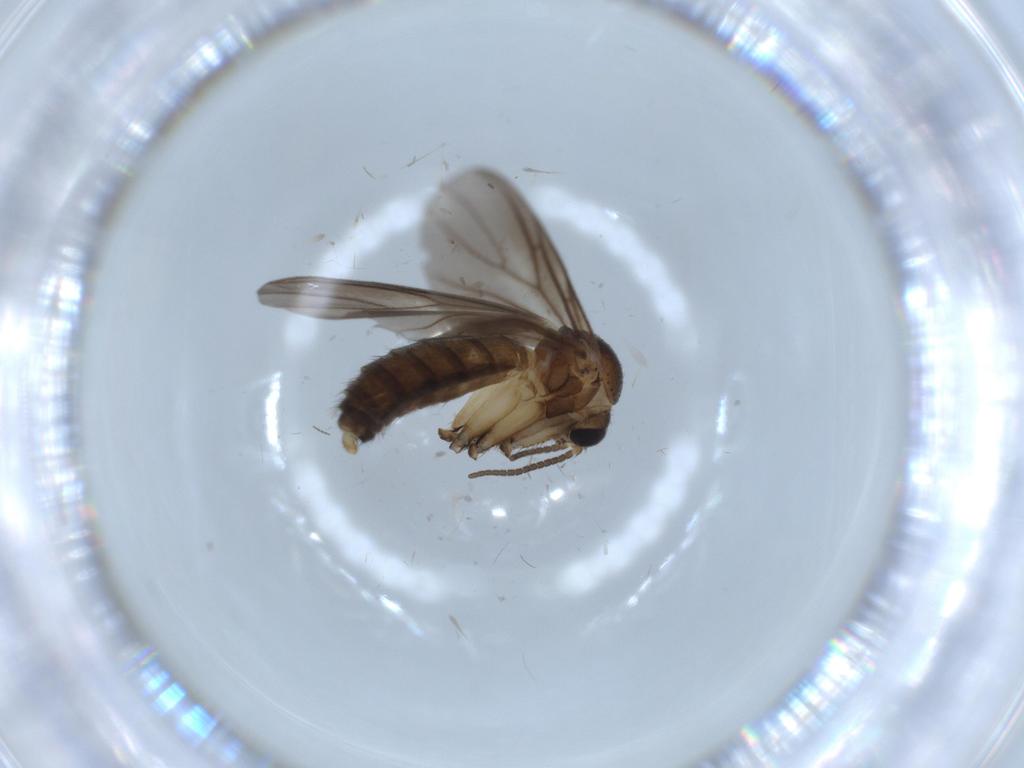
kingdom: Animalia
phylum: Arthropoda
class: Insecta
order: Diptera
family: Mycetophilidae
